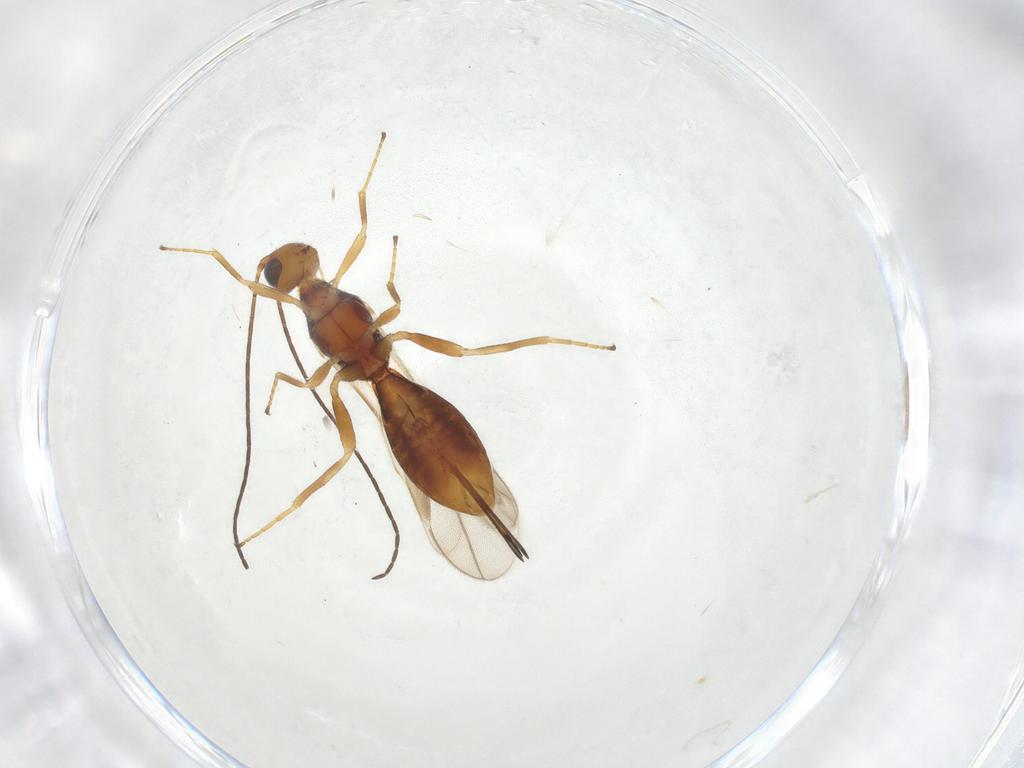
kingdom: Animalia
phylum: Arthropoda
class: Insecta
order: Hymenoptera
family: Braconidae
